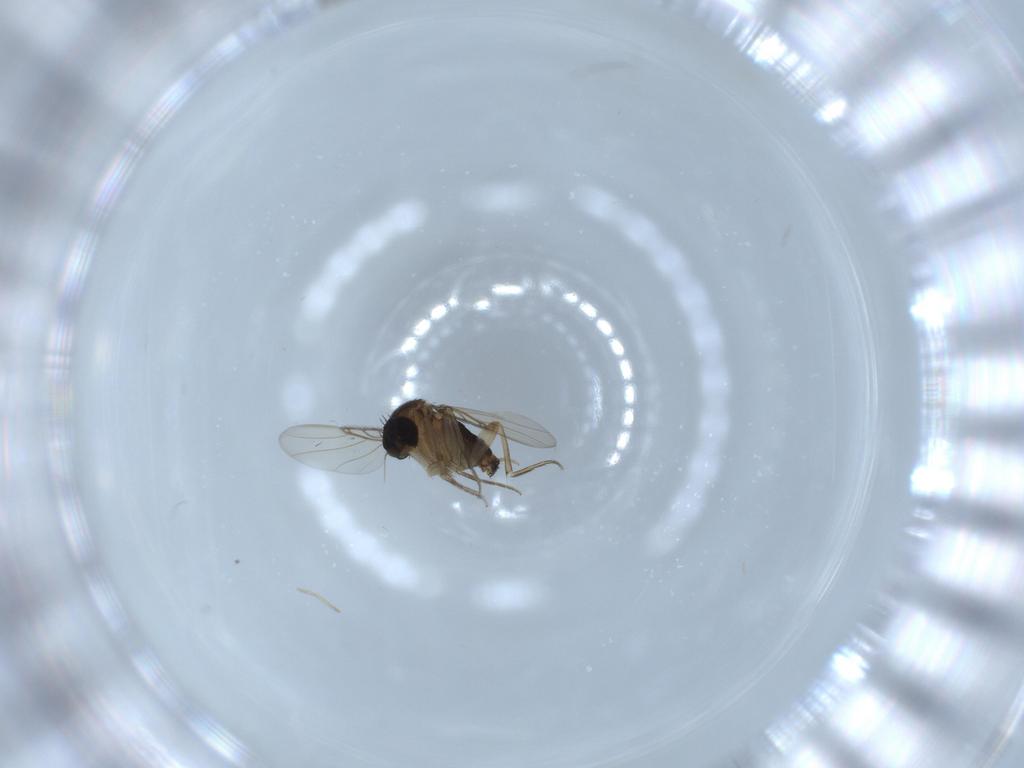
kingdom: Animalia
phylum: Arthropoda
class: Insecta
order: Diptera
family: Phoridae
